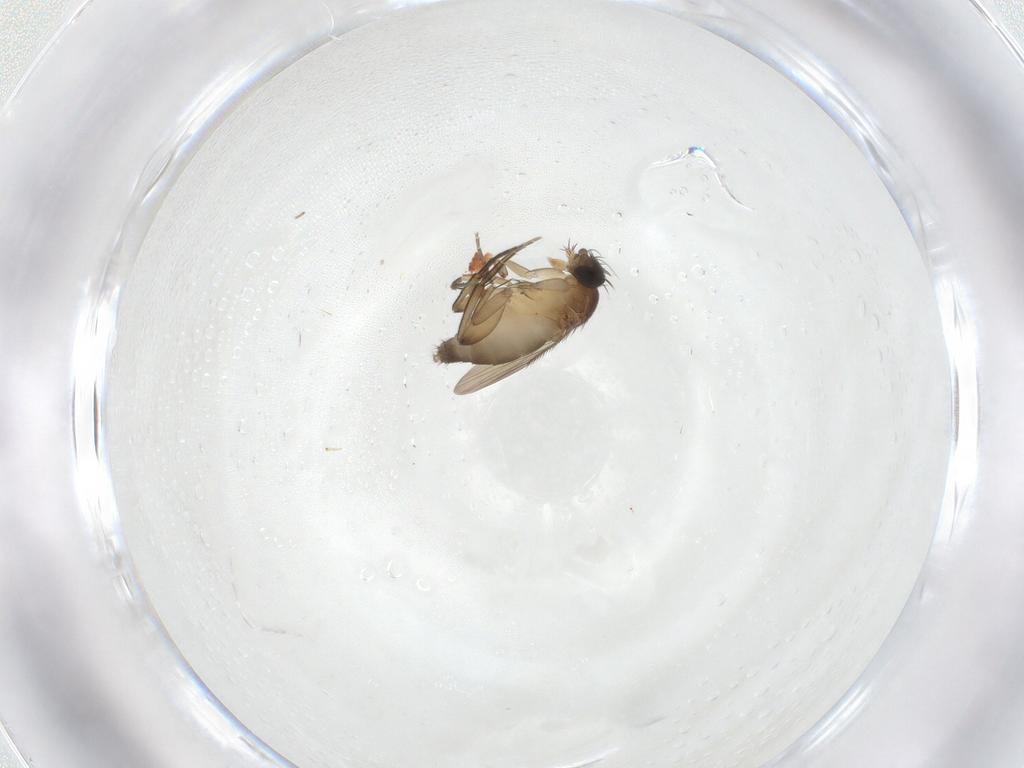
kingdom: Animalia
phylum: Arthropoda
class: Insecta
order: Diptera
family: Phoridae
